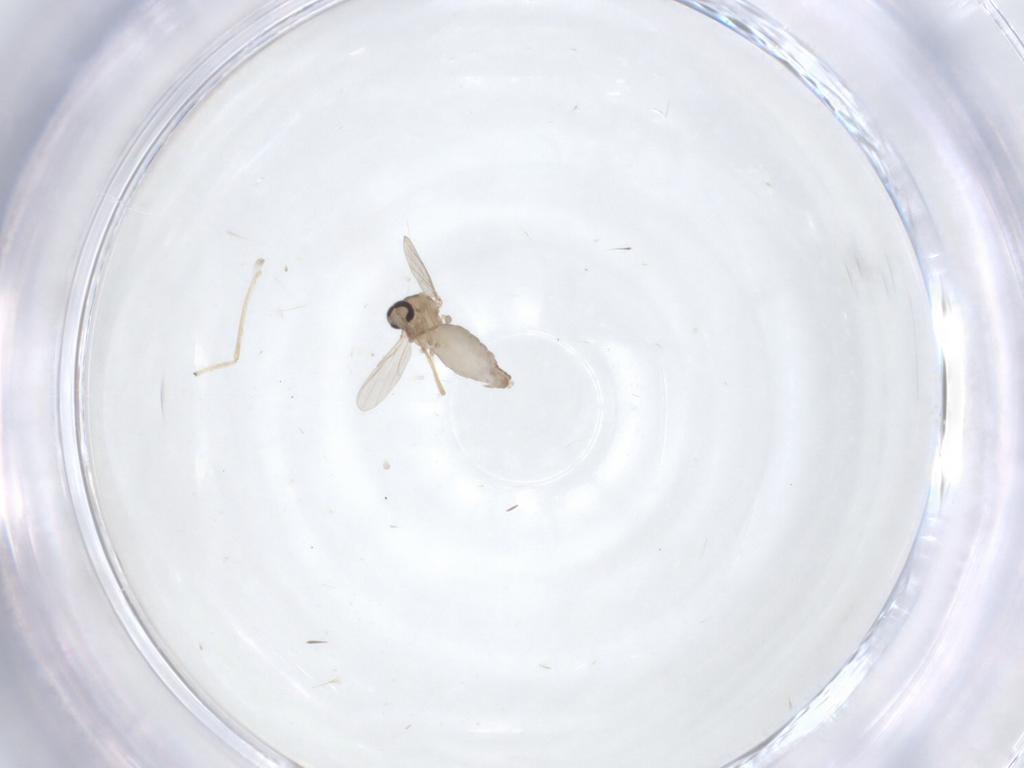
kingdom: Animalia
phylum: Arthropoda
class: Insecta
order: Diptera
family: Ceratopogonidae
